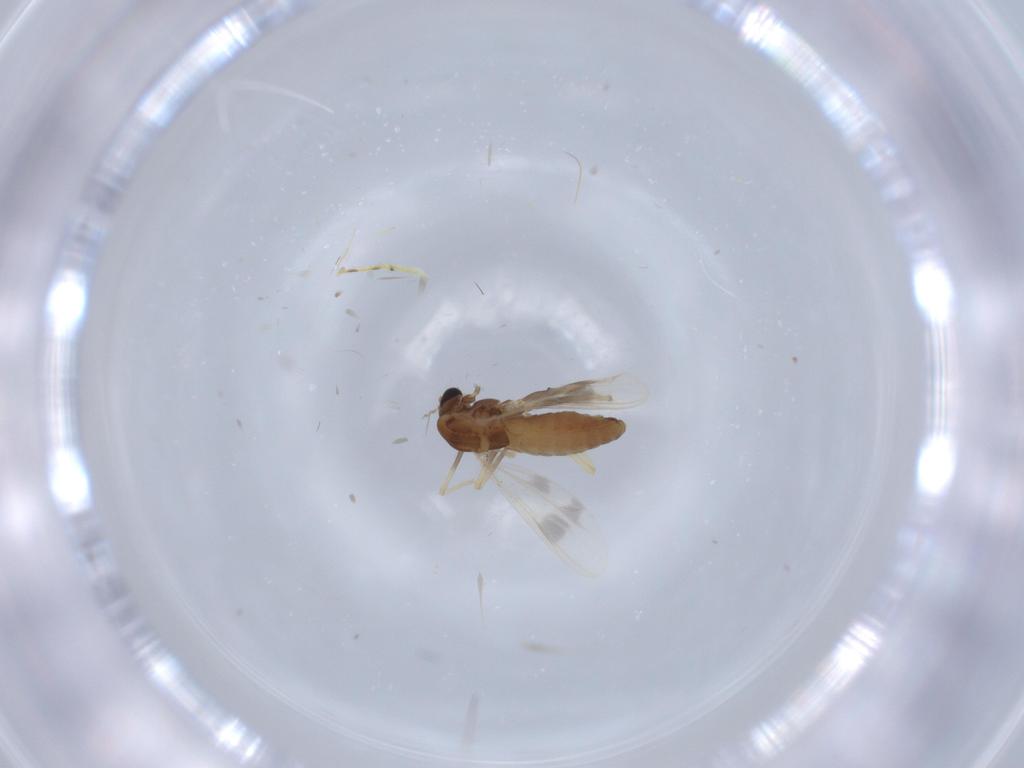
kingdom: Animalia
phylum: Arthropoda
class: Insecta
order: Diptera
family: Chironomidae
